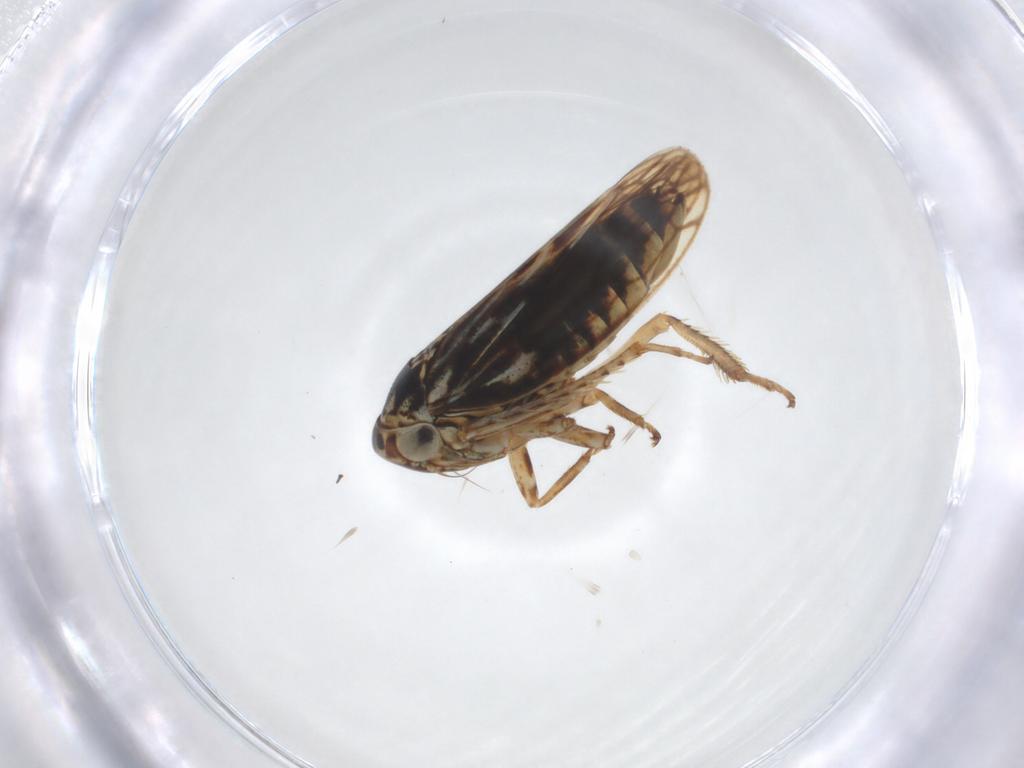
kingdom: Animalia
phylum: Arthropoda
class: Insecta
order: Hemiptera
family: Cicadellidae
